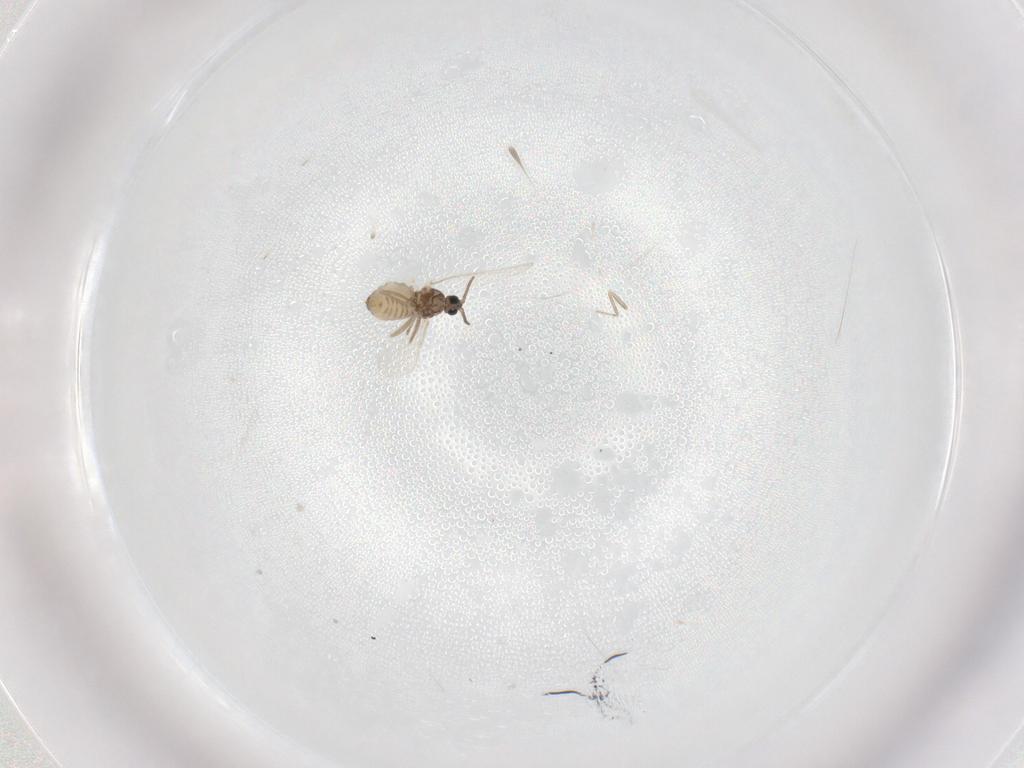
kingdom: Animalia
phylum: Arthropoda
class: Insecta
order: Diptera
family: Cecidomyiidae
